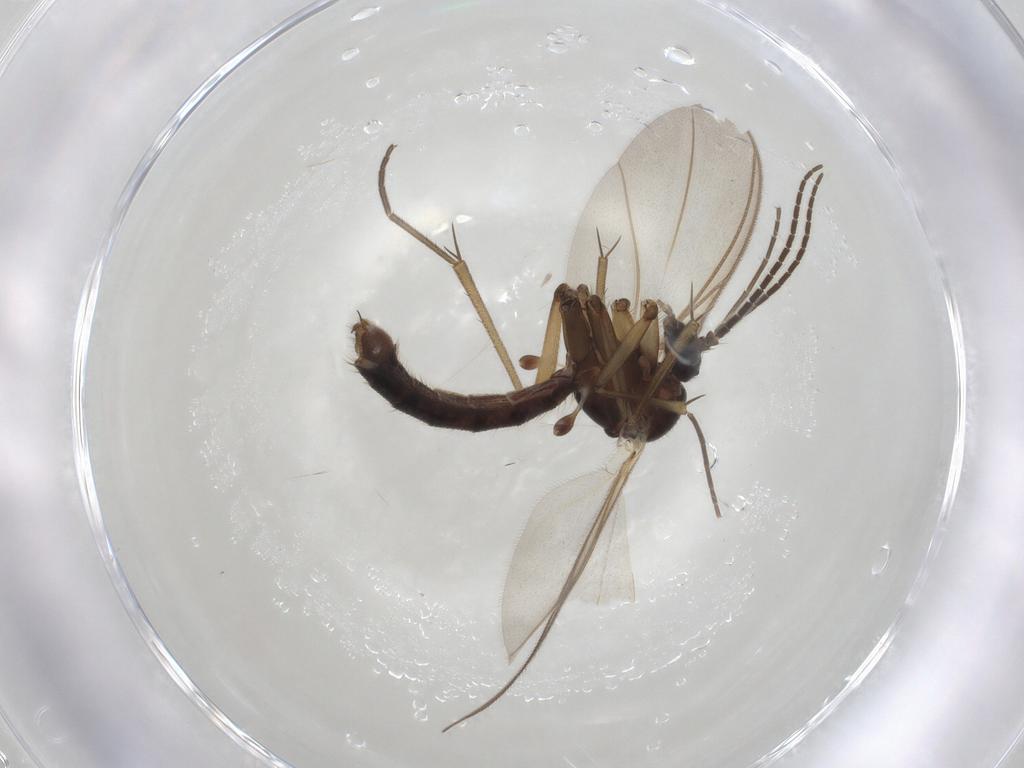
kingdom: Animalia
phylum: Arthropoda
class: Insecta
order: Diptera
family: Mycetophilidae
